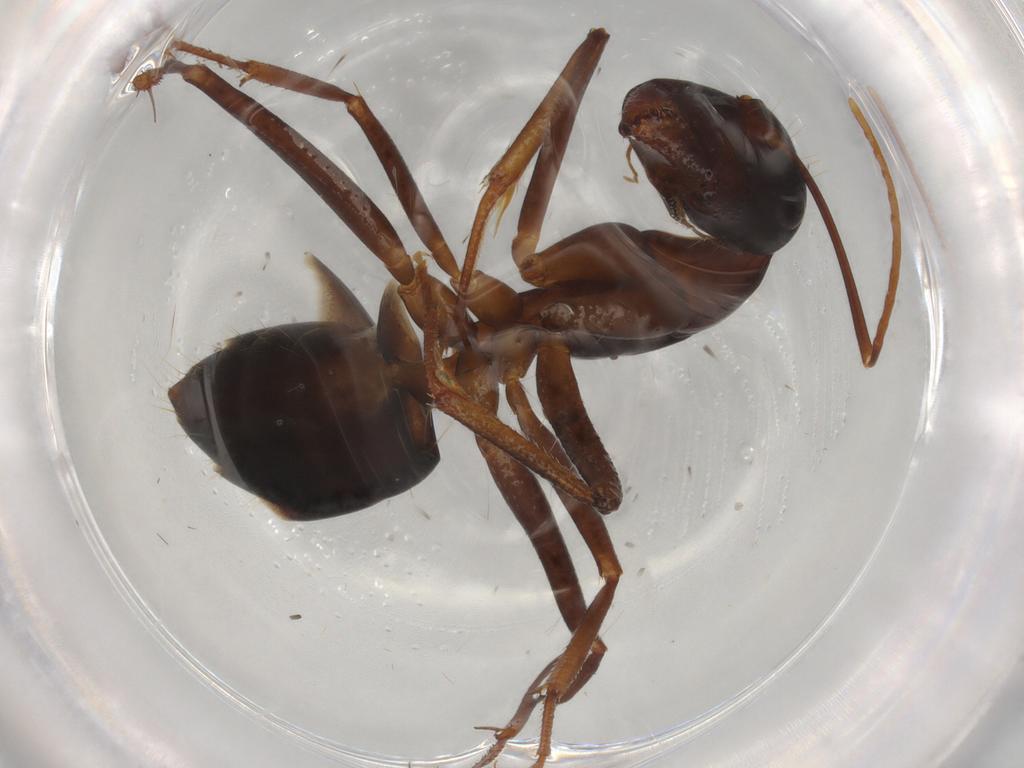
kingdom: Animalia
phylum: Arthropoda
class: Insecta
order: Hymenoptera
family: Formicidae
